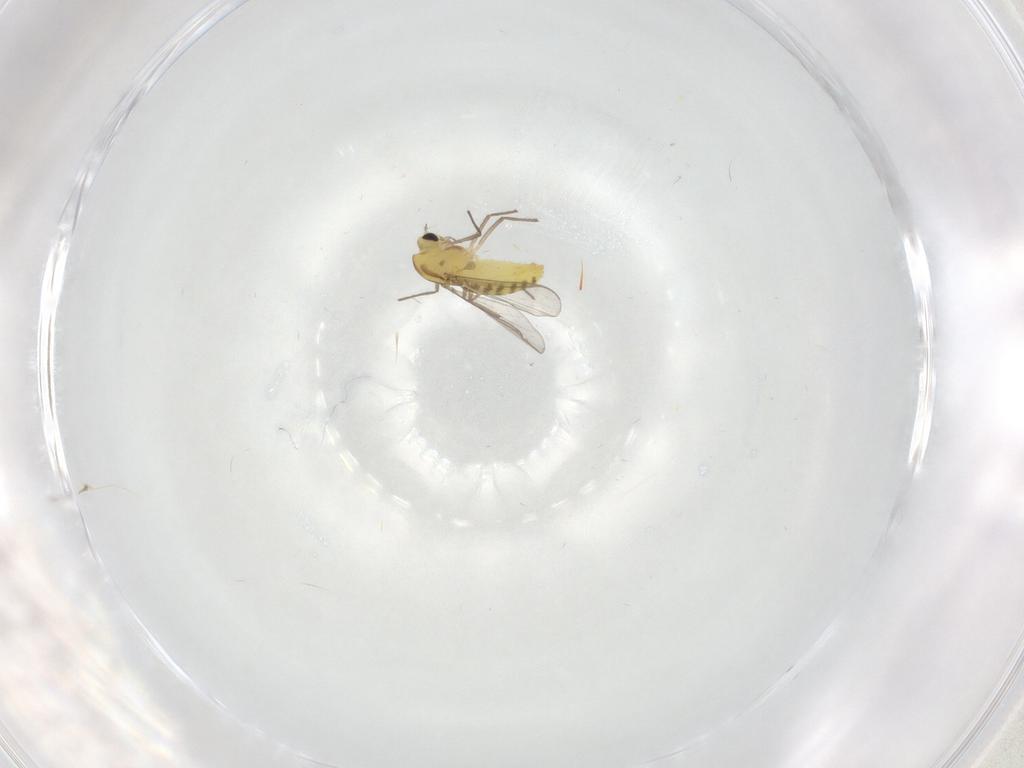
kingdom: Animalia
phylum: Arthropoda
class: Insecta
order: Diptera
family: Chironomidae
